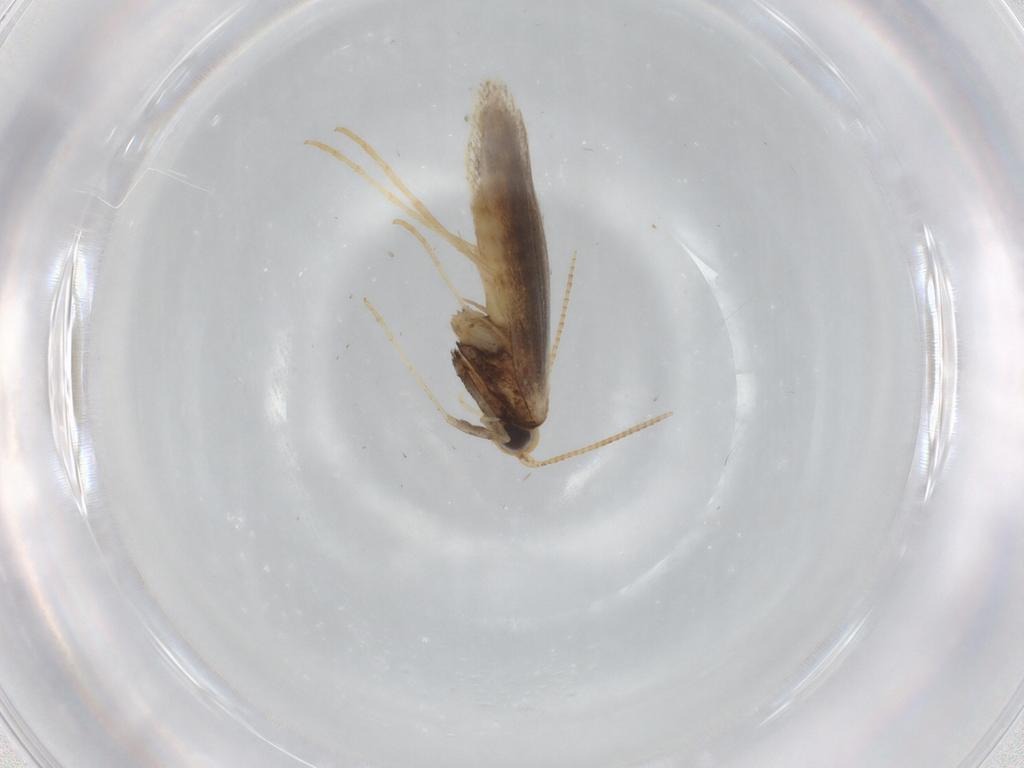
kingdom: Animalia
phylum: Arthropoda
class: Insecta
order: Lepidoptera
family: Gracillariidae
